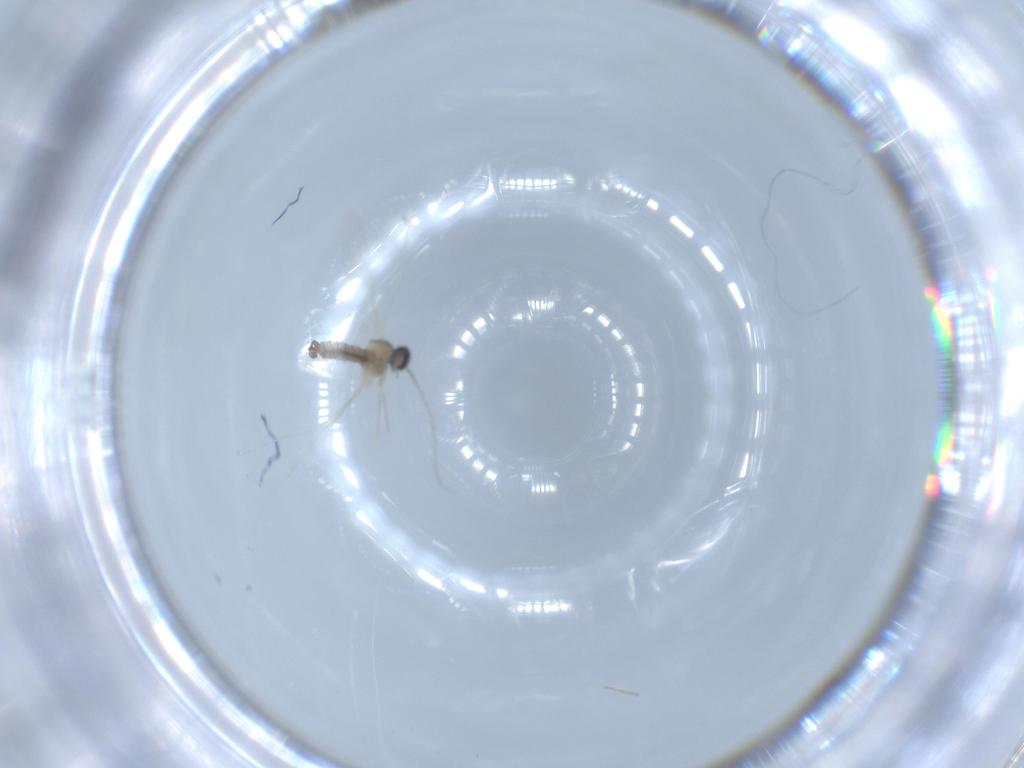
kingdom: Animalia
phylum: Arthropoda
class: Insecta
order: Diptera
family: Cecidomyiidae
